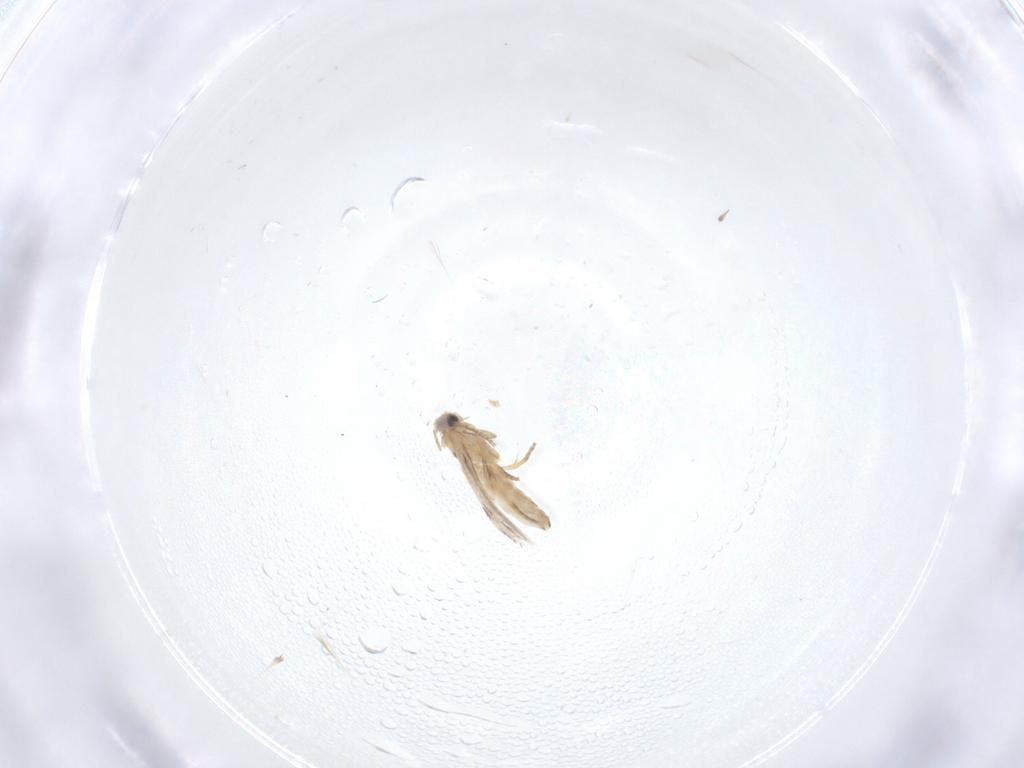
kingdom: Animalia
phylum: Arthropoda
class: Insecta
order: Lepidoptera
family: Nepticulidae
